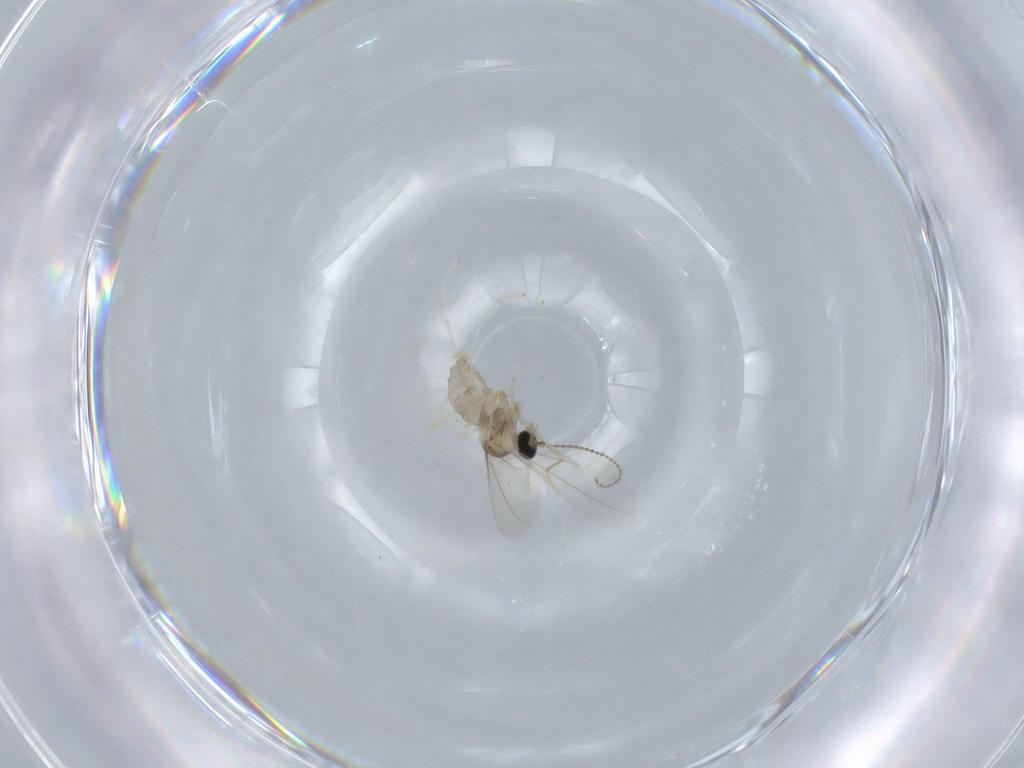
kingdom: Animalia
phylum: Arthropoda
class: Insecta
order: Diptera
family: Cecidomyiidae
